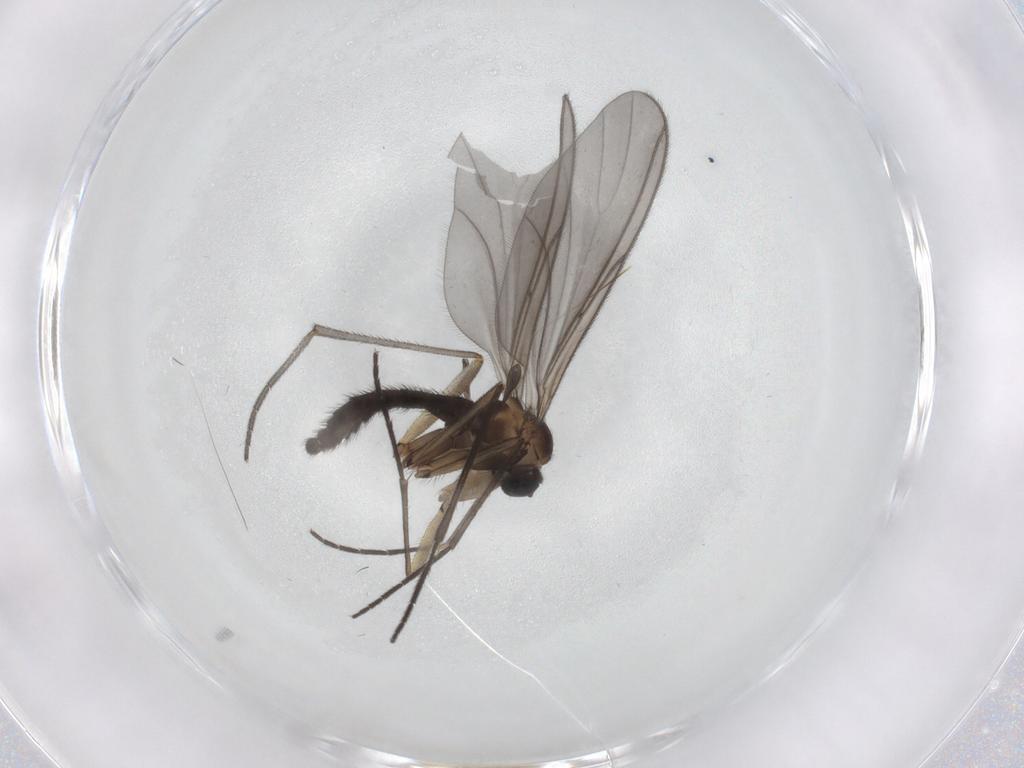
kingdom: Animalia
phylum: Arthropoda
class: Insecta
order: Diptera
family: Sciaridae
